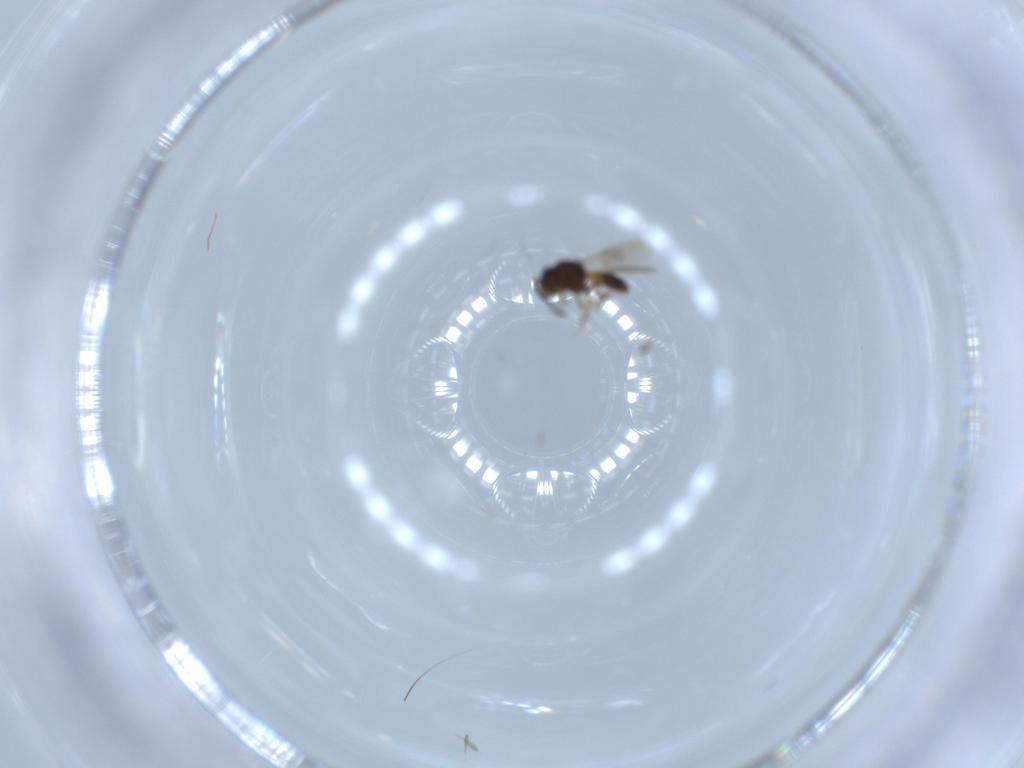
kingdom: Animalia
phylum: Arthropoda
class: Insecta
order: Hymenoptera
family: Scelionidae
